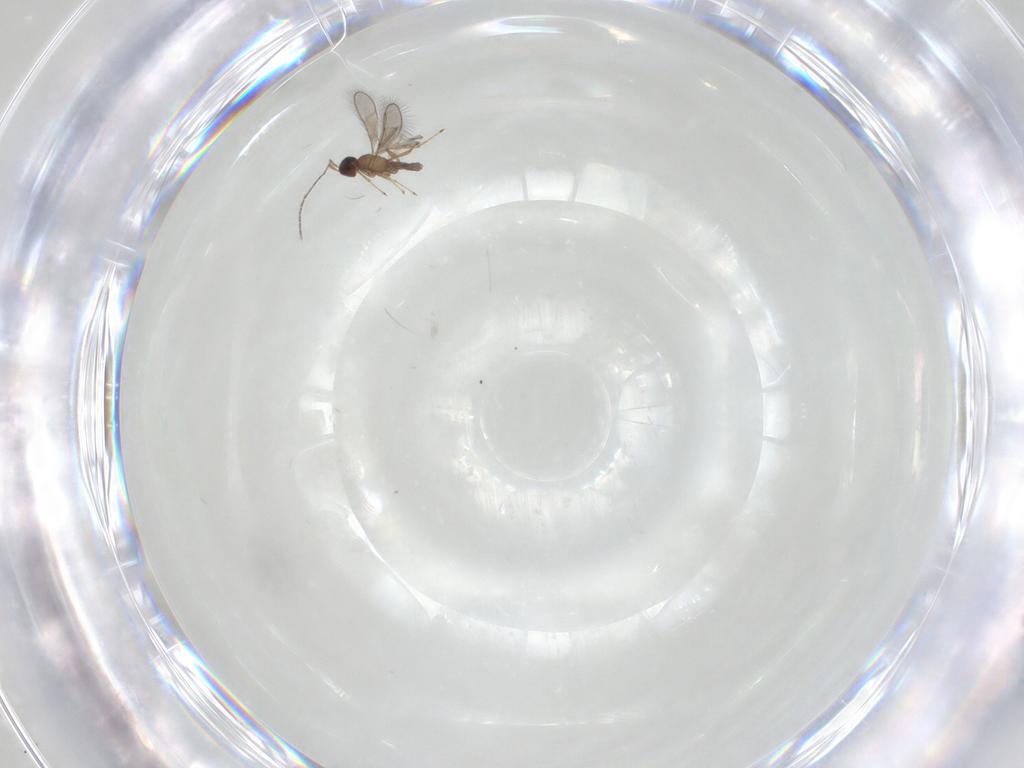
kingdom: Animalia
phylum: Arthropoda
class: Insecta
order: Hymenoptera
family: Mymaridae
